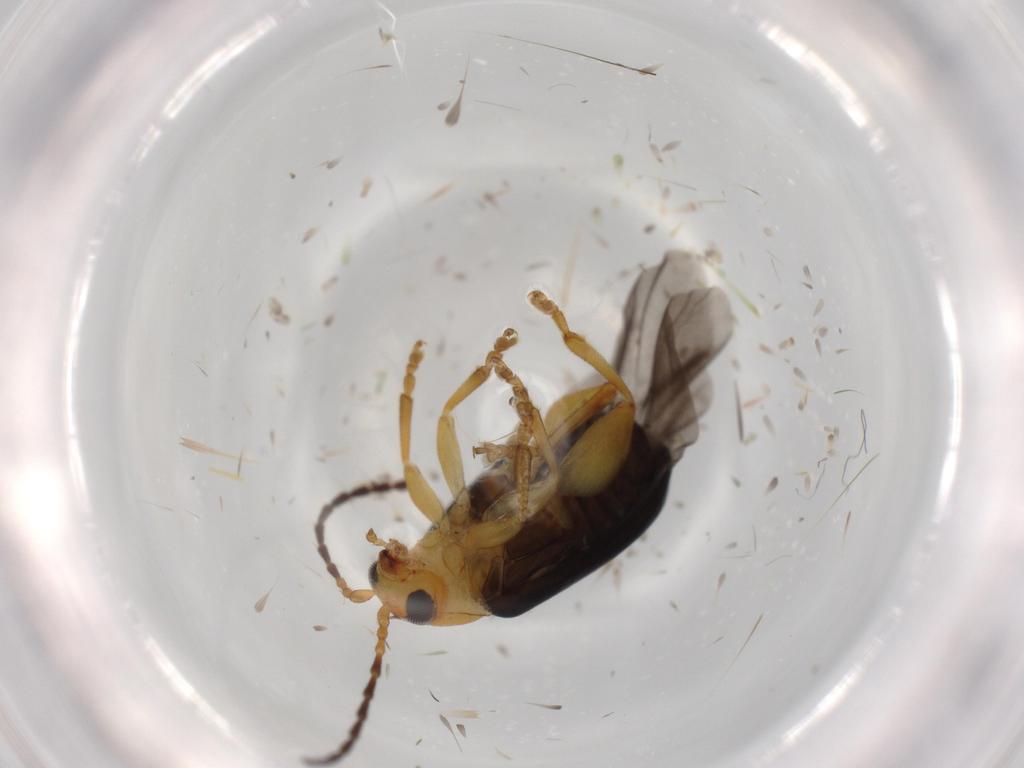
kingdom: Animalia
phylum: Arthropoda
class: Insecta
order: Coleoptera
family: Chrysomelidae
